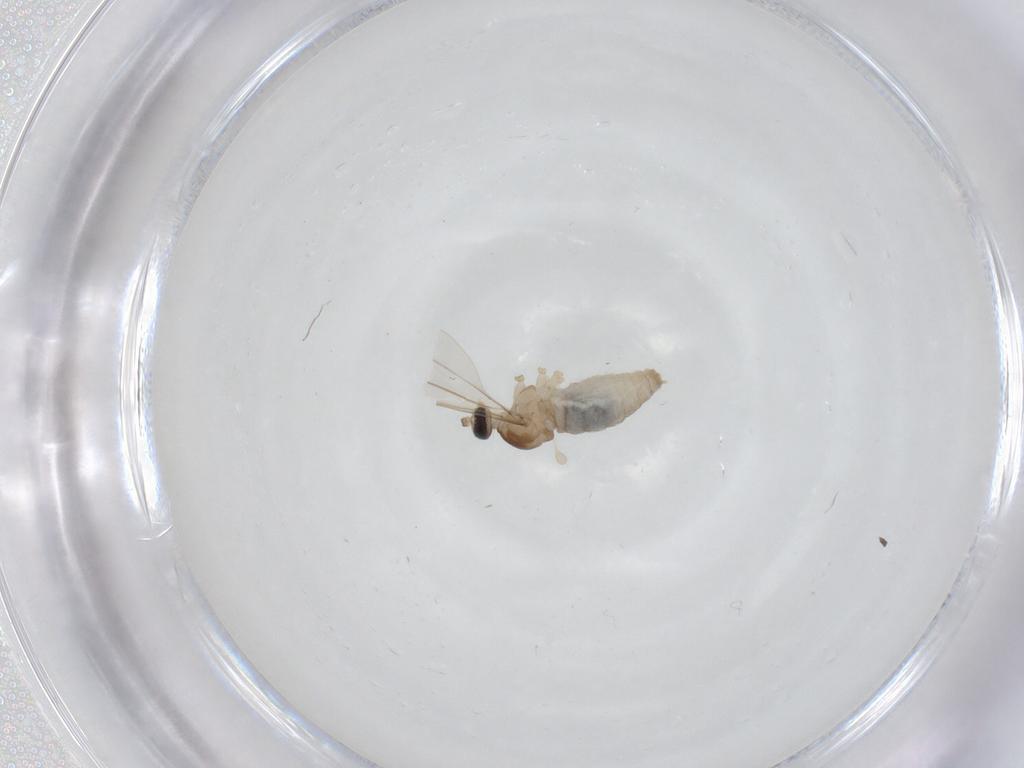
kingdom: Animalia
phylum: Arthropoda
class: Insecta
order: Diptera
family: Cecidomyiidae
